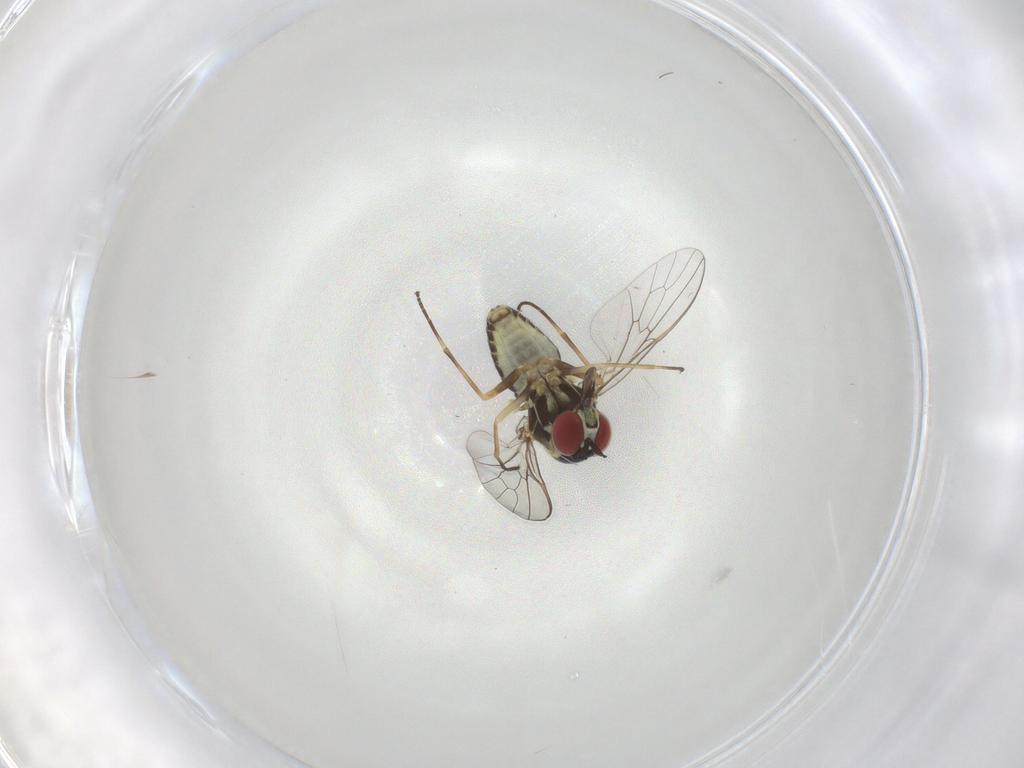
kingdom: Animalia
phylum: Arthropoda
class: Insecta
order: Diptera
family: Bombyliidae
